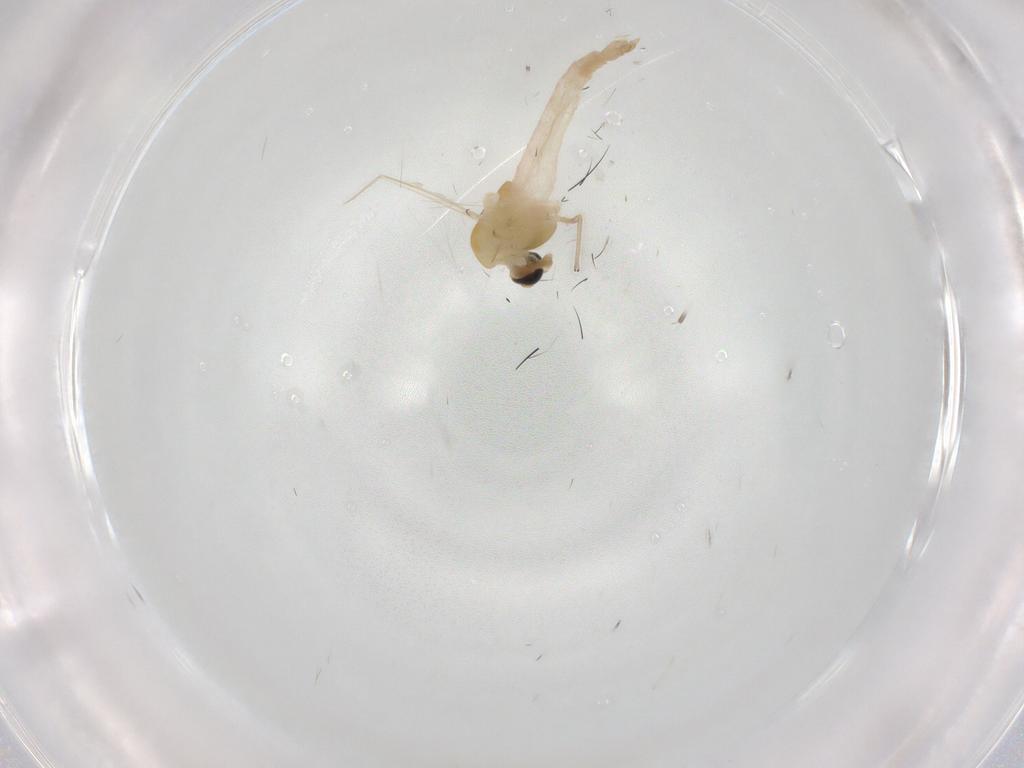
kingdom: Animalia
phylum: Arthropoda
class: Insecta
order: Diptera
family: Chironomidae
